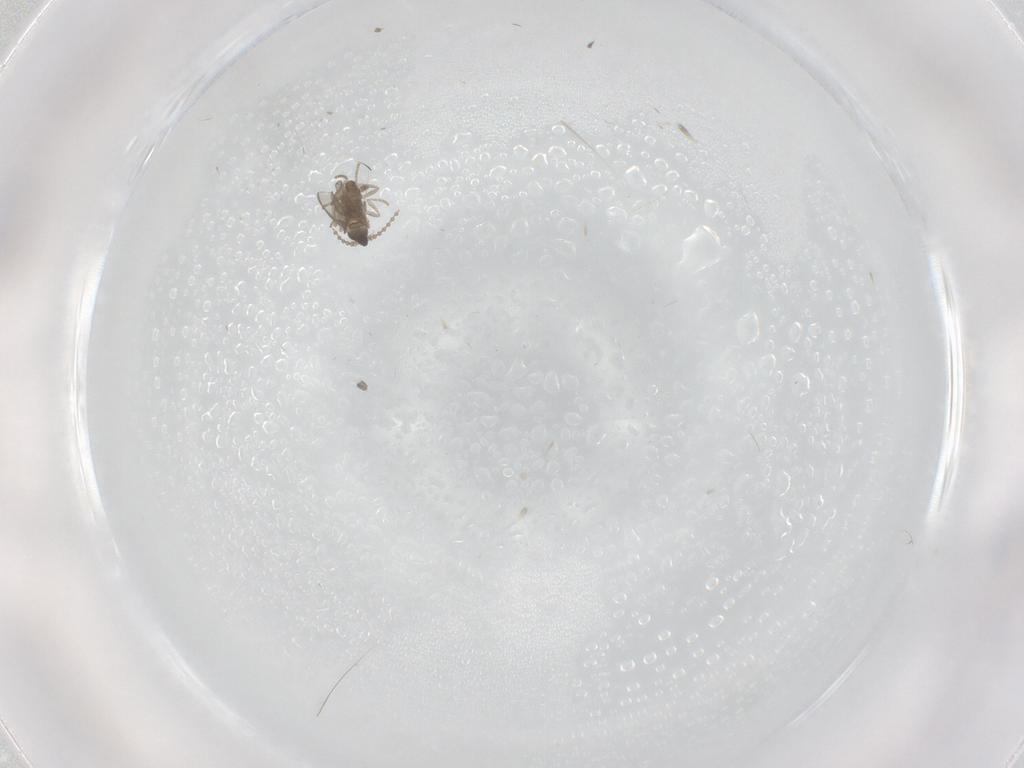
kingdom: Animalia
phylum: Arthropoda
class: Insecta
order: Diptera
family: Cecidomyiidae
